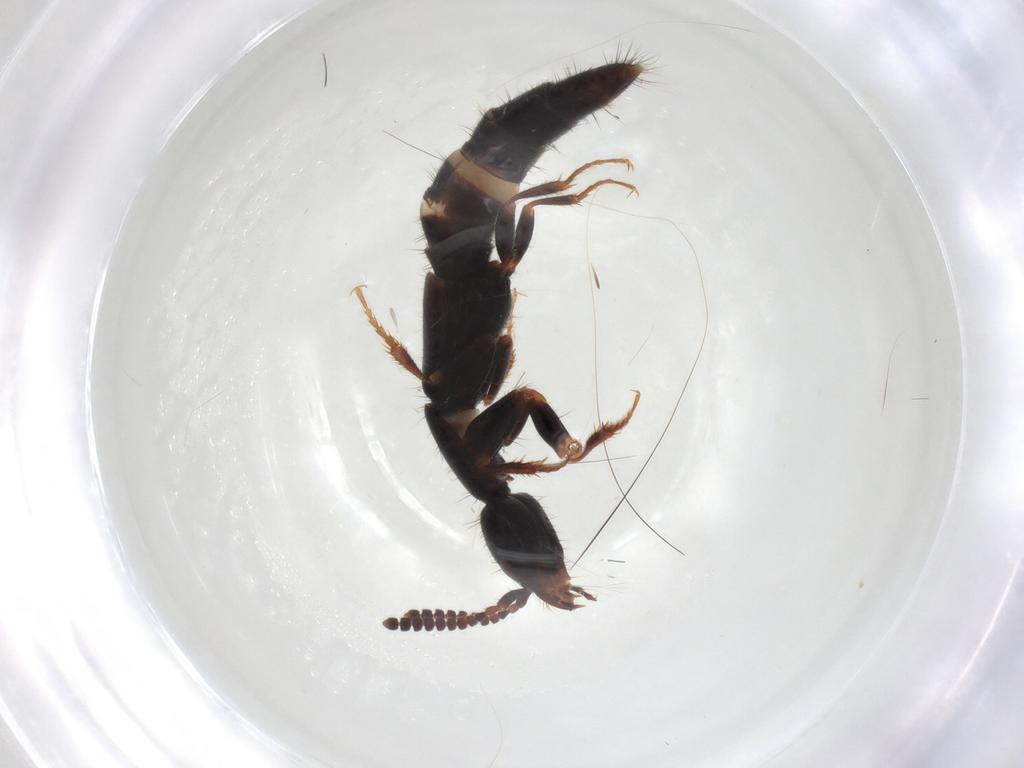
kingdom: Animalia
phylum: Arthropoda
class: Insecta
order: Coleoptera
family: Staphylinidae
